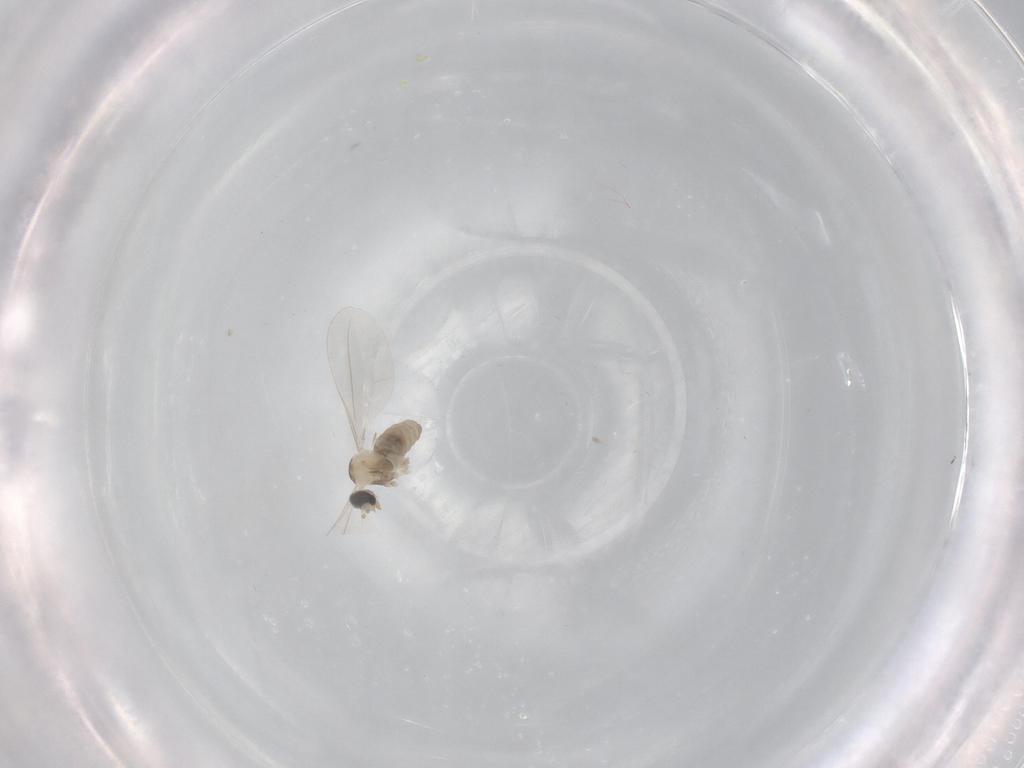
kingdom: Animalia
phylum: Arthropoda
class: Insecta
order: Diptera
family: Cecidomyiidae
